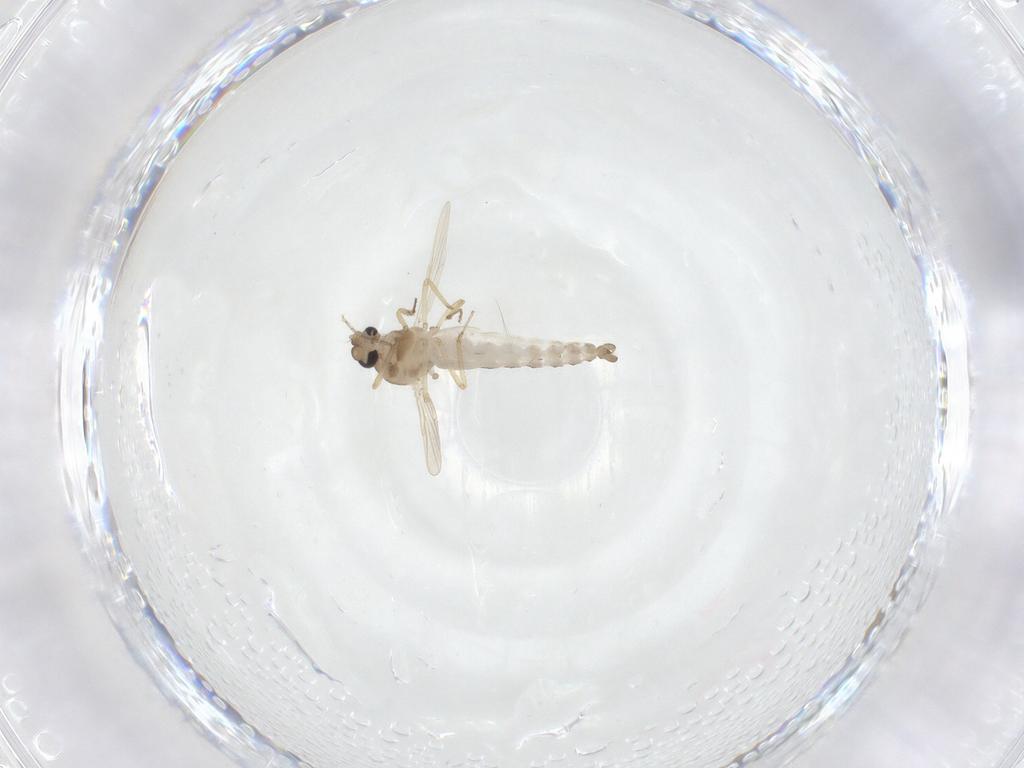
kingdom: Animalia
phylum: Arthropoda
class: Insecta
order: Diptera
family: Ceratopogonidae
